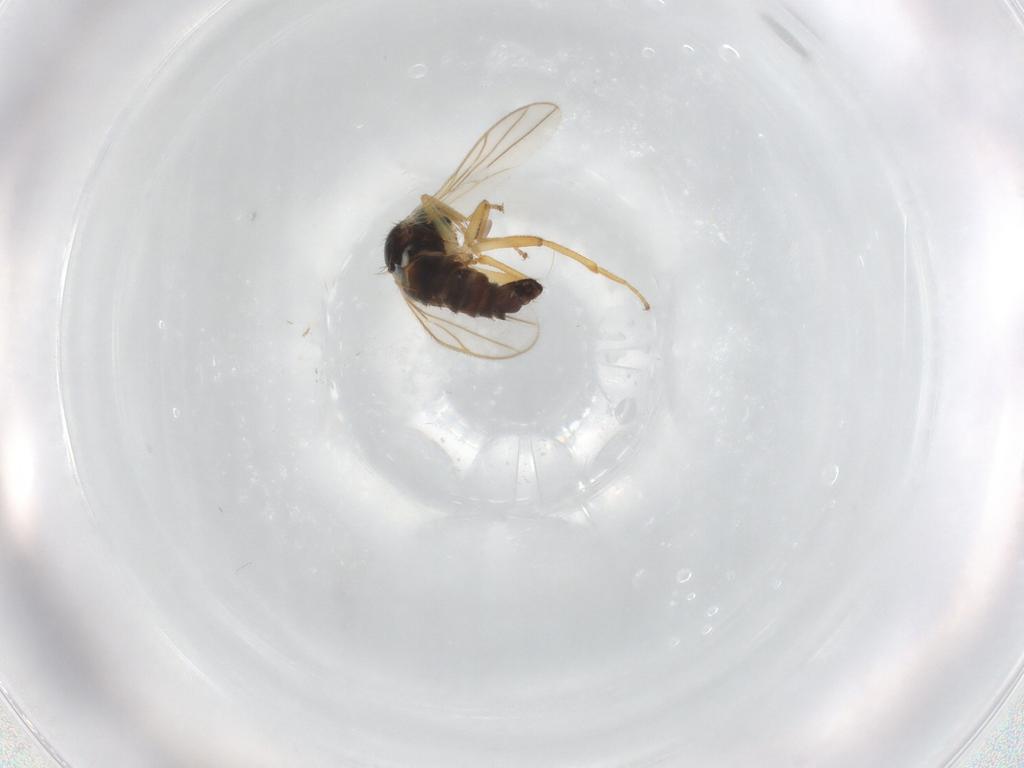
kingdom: Animalia
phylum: Arthropoda
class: Insecta
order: Diptera
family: Hybotidae
